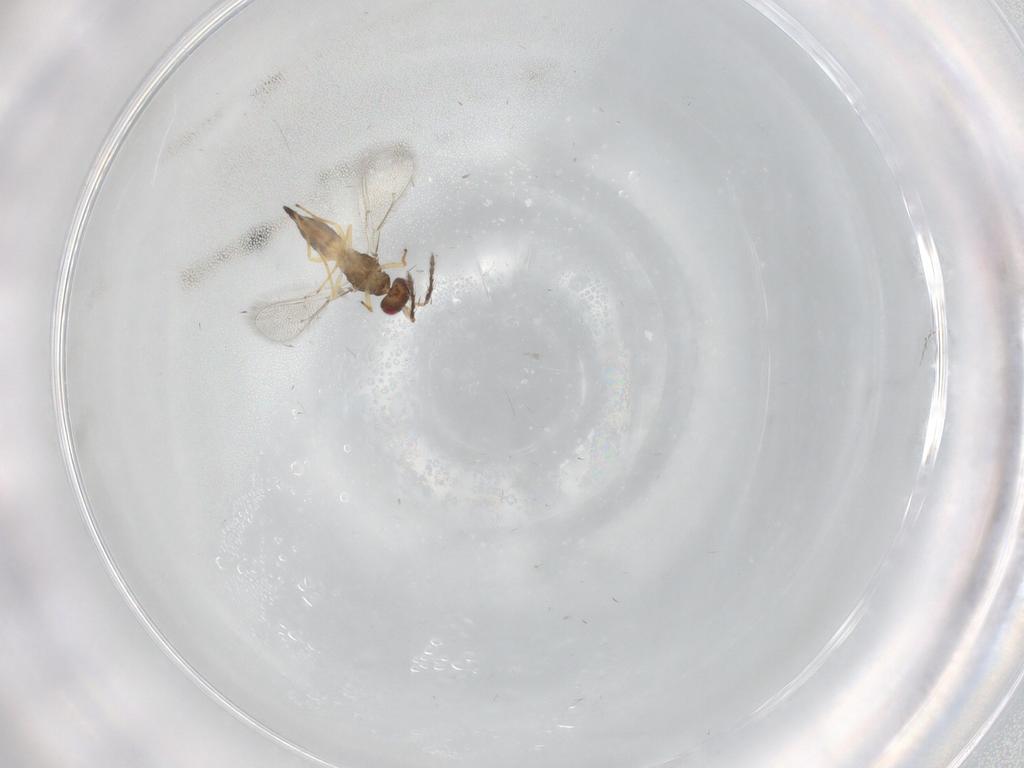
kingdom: Animalia
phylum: Arthropoda
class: Insecta
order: Hymenoptera
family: Eulophidae
